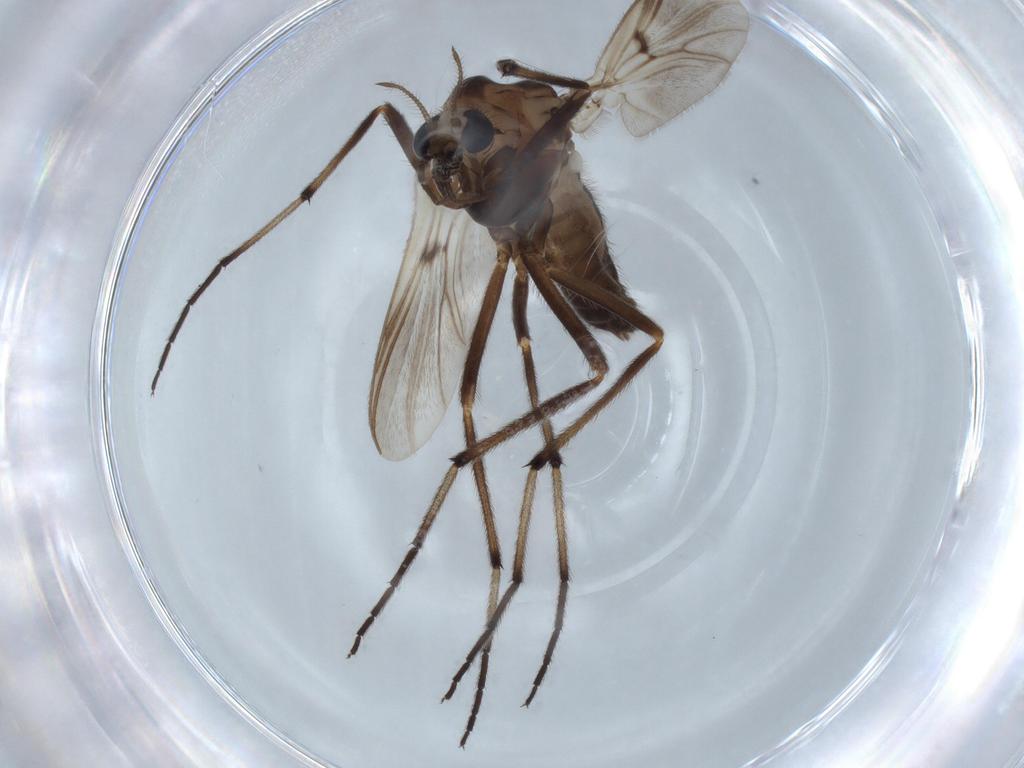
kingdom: Animalia
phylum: Arthropoda
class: Insecta
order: Diptera
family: Chironomidae
